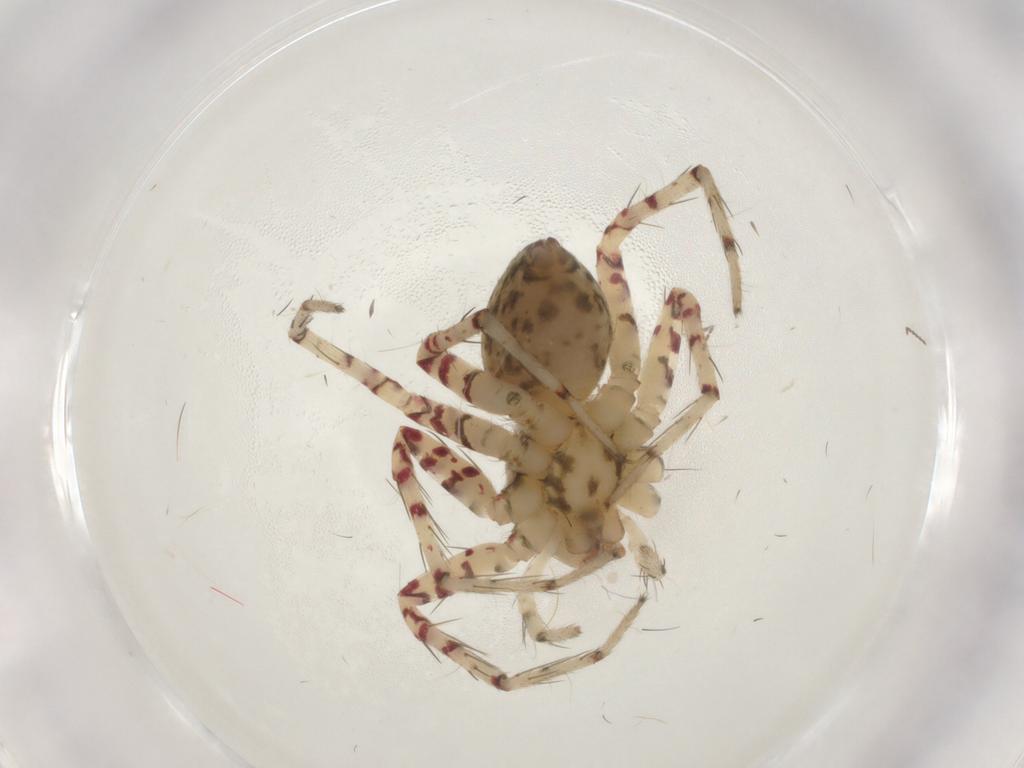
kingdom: Animalia
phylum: Arthropoda
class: Arachnida
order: Araneae
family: Trechaleidae
